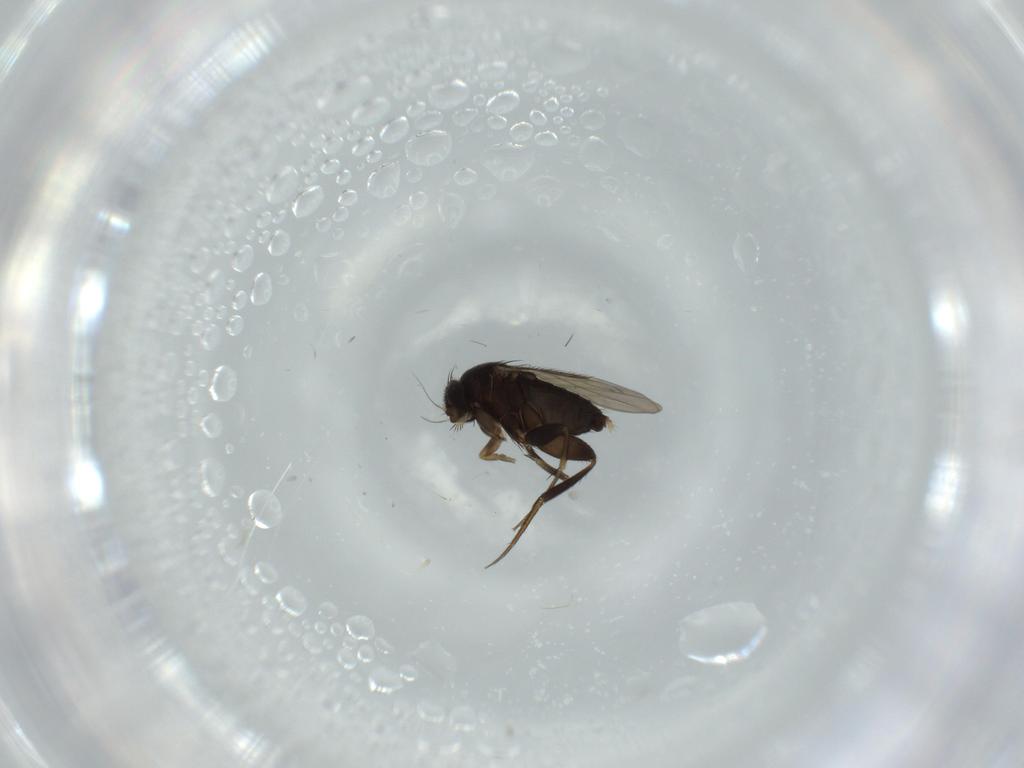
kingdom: Animalia
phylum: Arthropoda
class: Insecta
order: Diptera
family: Phoridae
